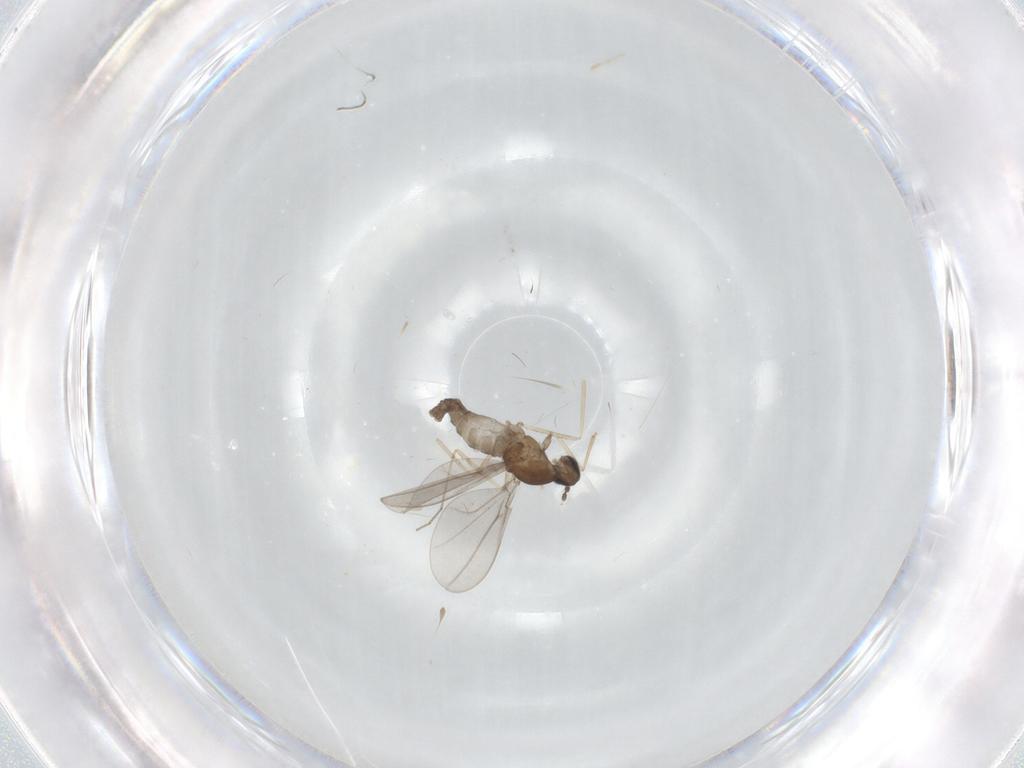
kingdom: Animalia
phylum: Arthropoda
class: Insecta
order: Diptera
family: Cecidomyiidae
